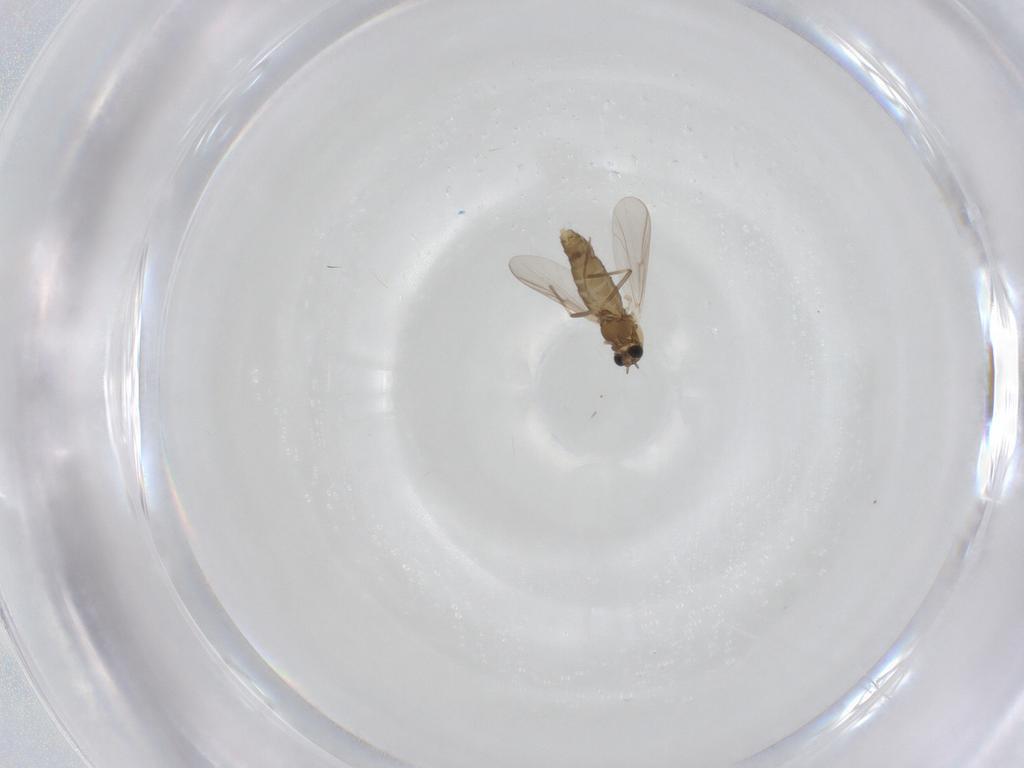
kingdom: Animalia
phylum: Arthropoda
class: Insecta
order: Diptera
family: Chironomidae
